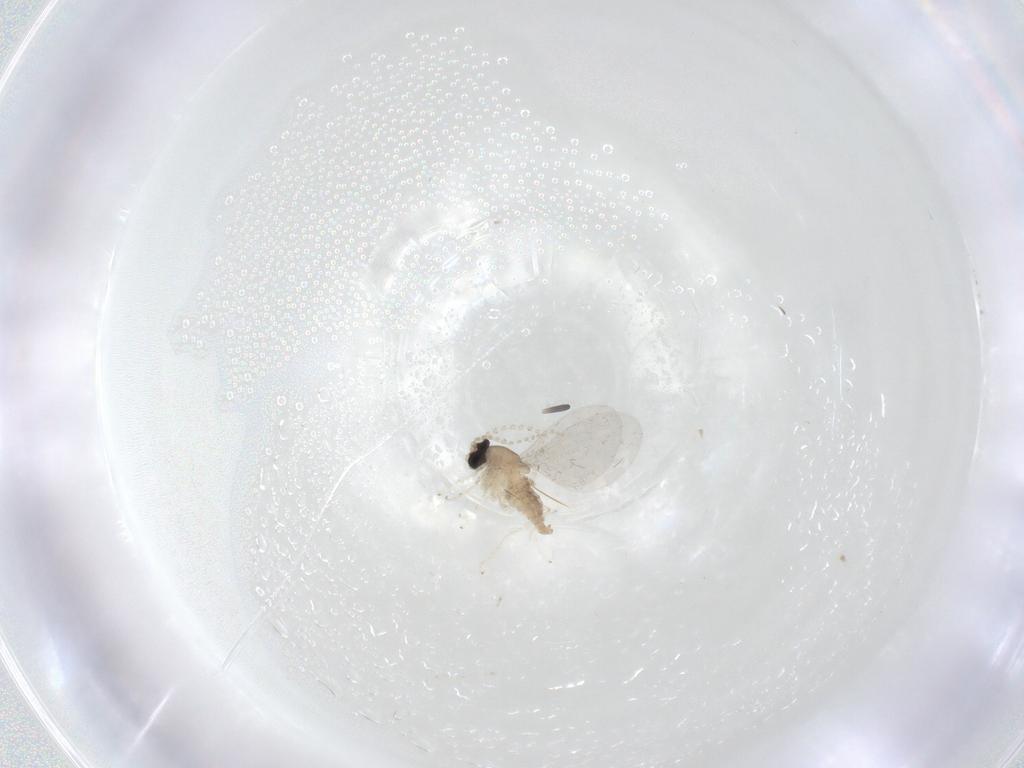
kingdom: Animalia
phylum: Arthropoda
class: Insecta
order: Diptera
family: Cecidomyiidae
